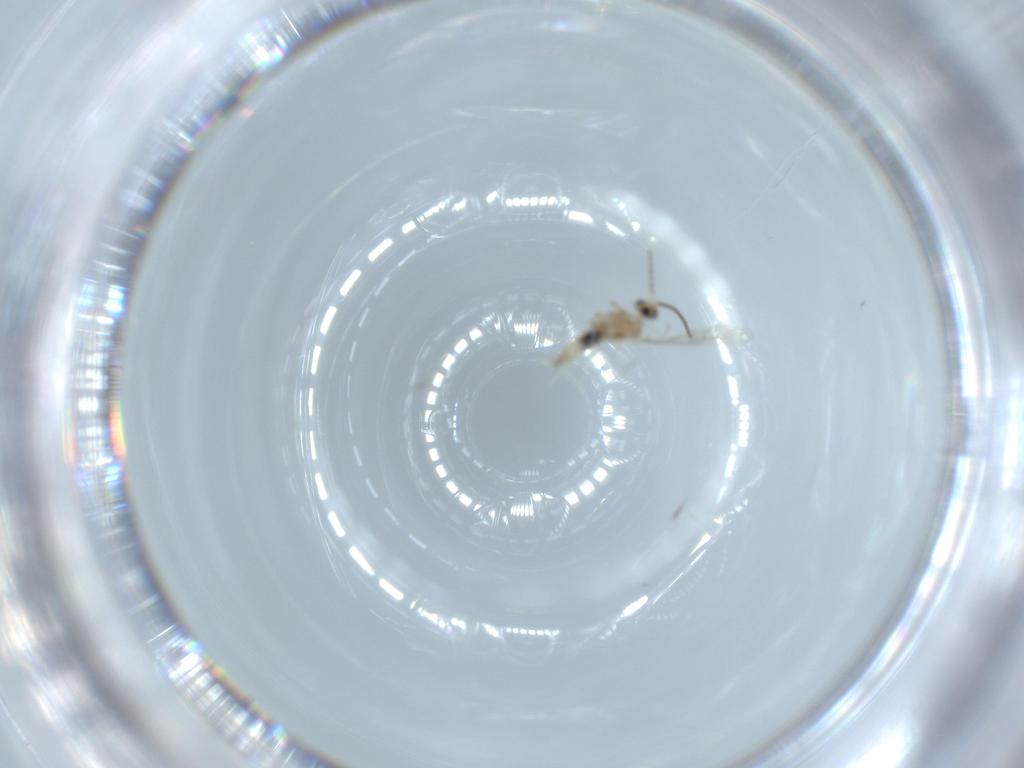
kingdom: Animalia
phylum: Arthropoda
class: Insecta
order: Diptera
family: Cecidomyiidae
